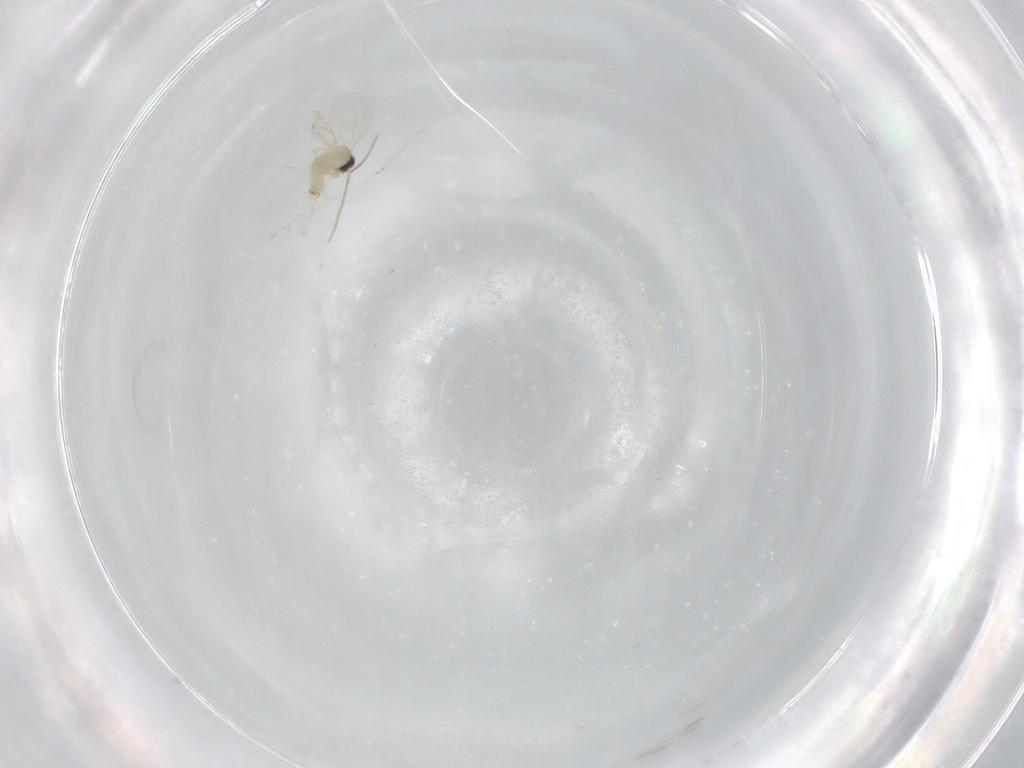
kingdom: Animalia
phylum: Arthropoda
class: Insecta
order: Diptera
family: Cecidomyiidae
